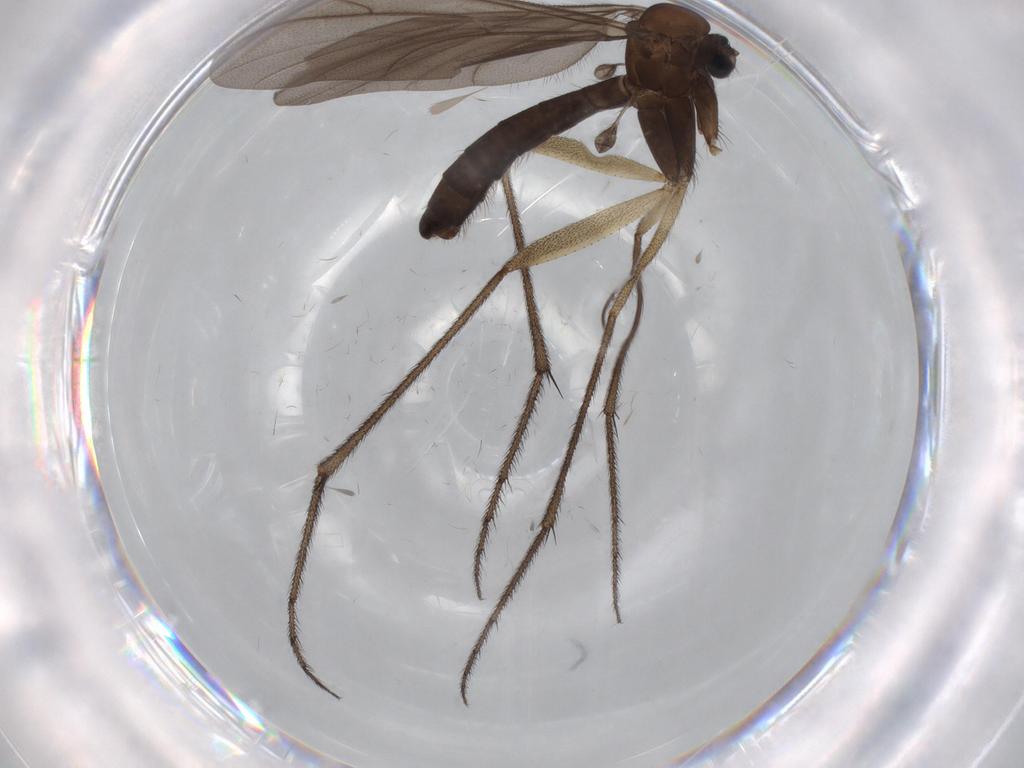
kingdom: Animalia
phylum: Arthropoda
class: Insecta
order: Diptera
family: Ditomyiidae
